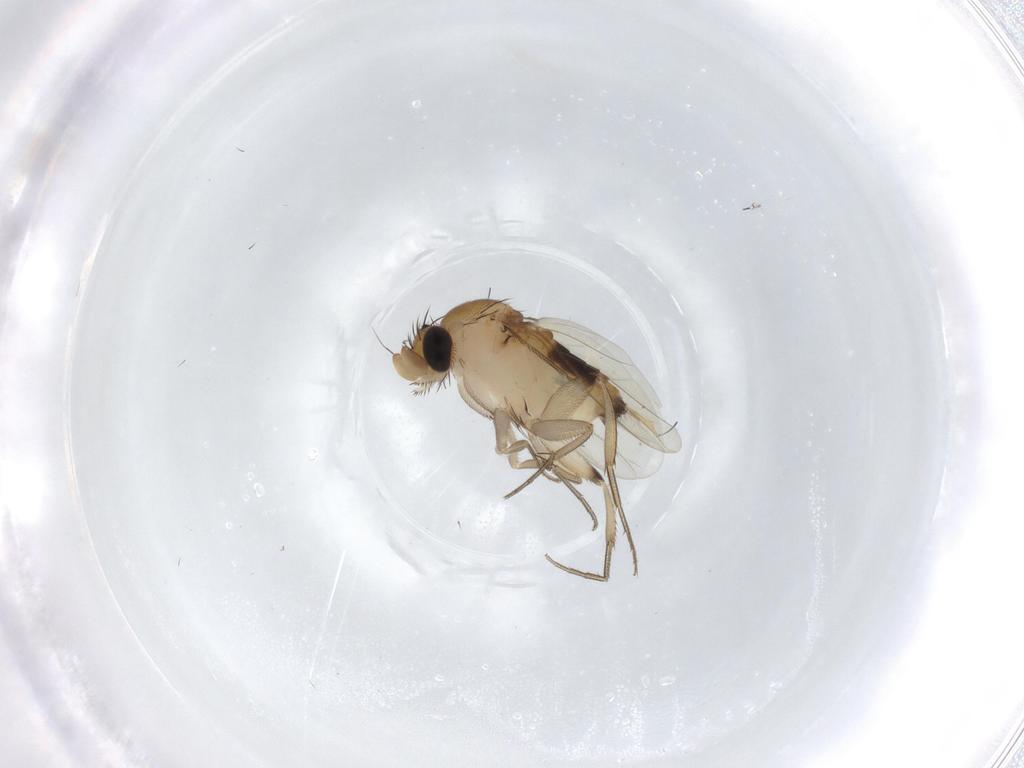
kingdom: Animalia
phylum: Arthropoda
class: Insecta
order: Diptera
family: Phoridae
